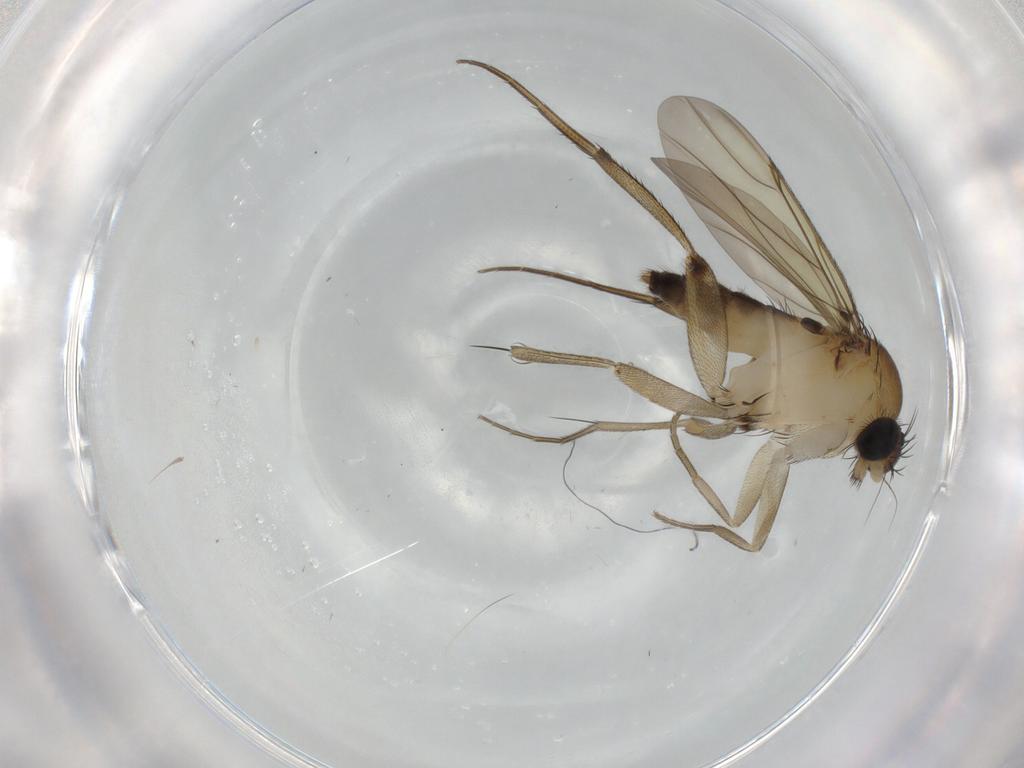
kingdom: Animalia
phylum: Arthropoda
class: Insecta
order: Diptera
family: Phoridae
